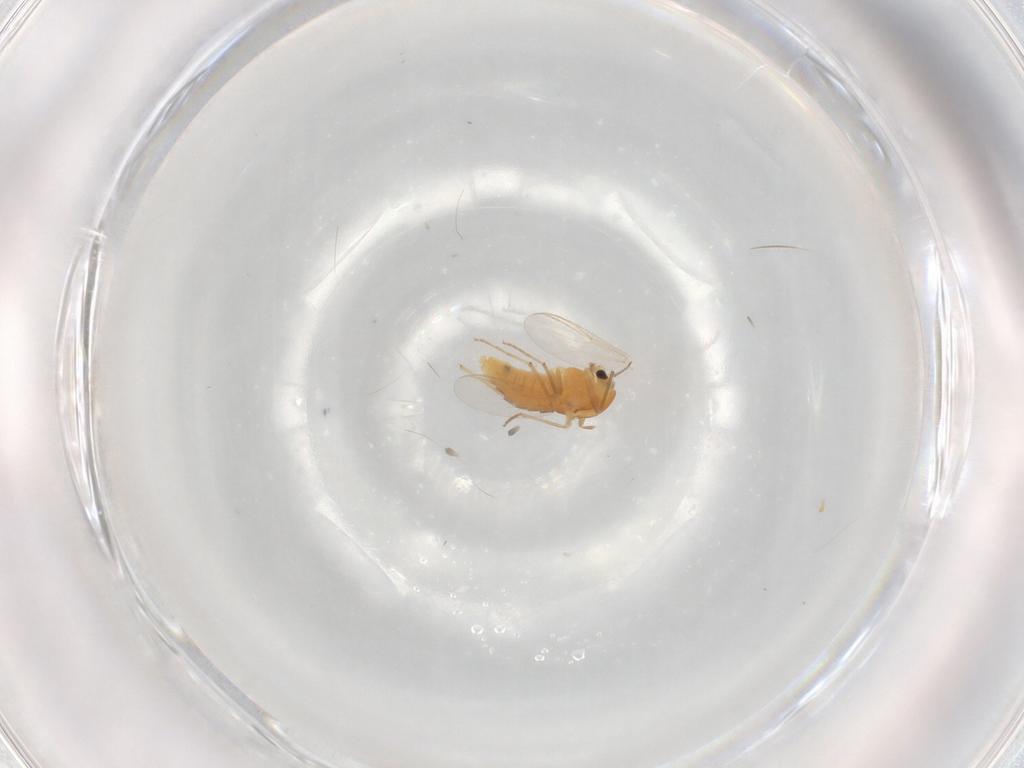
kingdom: Animalia
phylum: Arthropoda
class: Insecta
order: Diptera
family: Chironomidae
